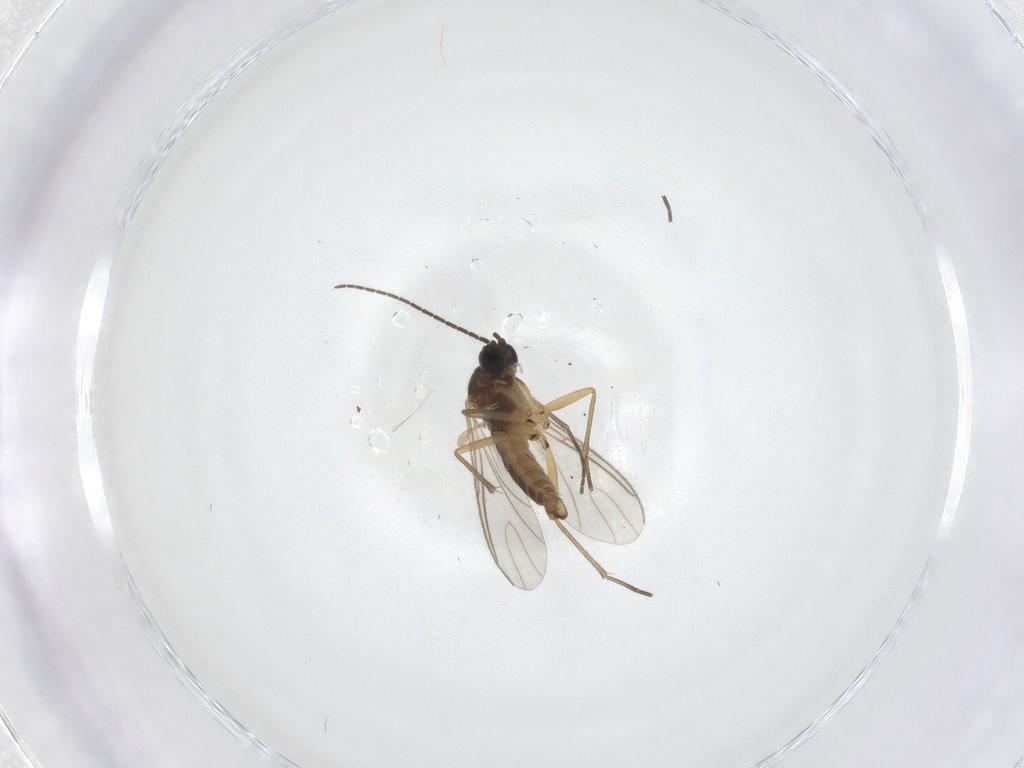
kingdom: Animalia
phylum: Arthropoda
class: Insecta
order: Diptera
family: Sciaridae
